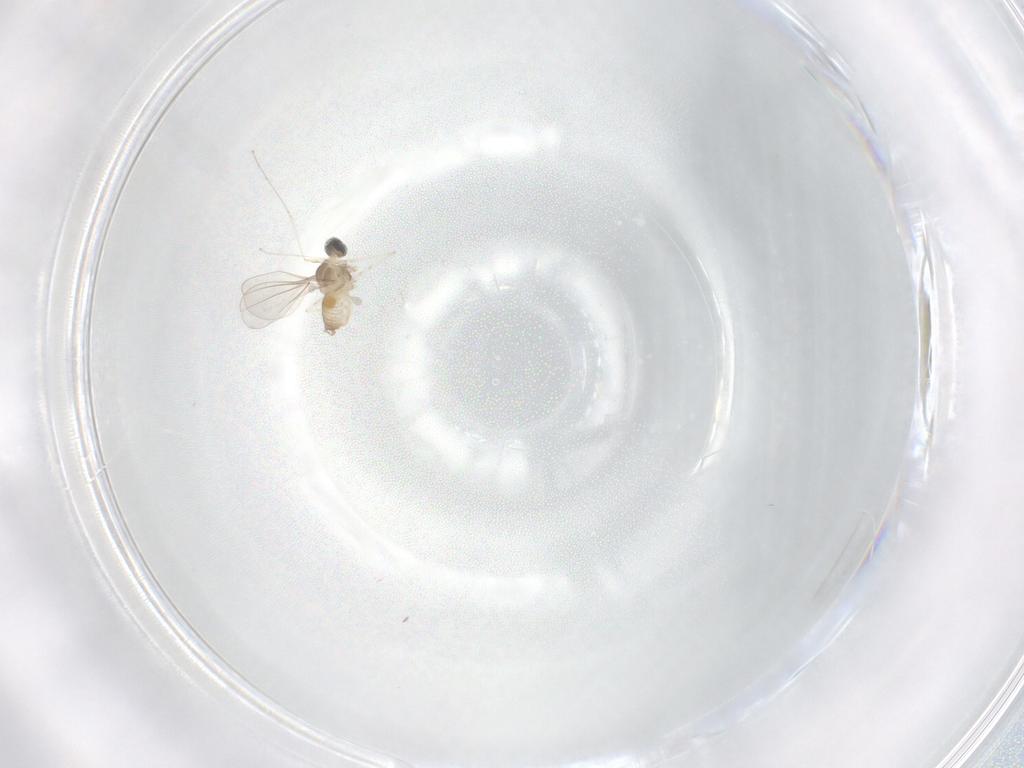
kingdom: Animalia
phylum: Arthropoda
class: Insecta
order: Diptera
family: Cecidomyiidae
